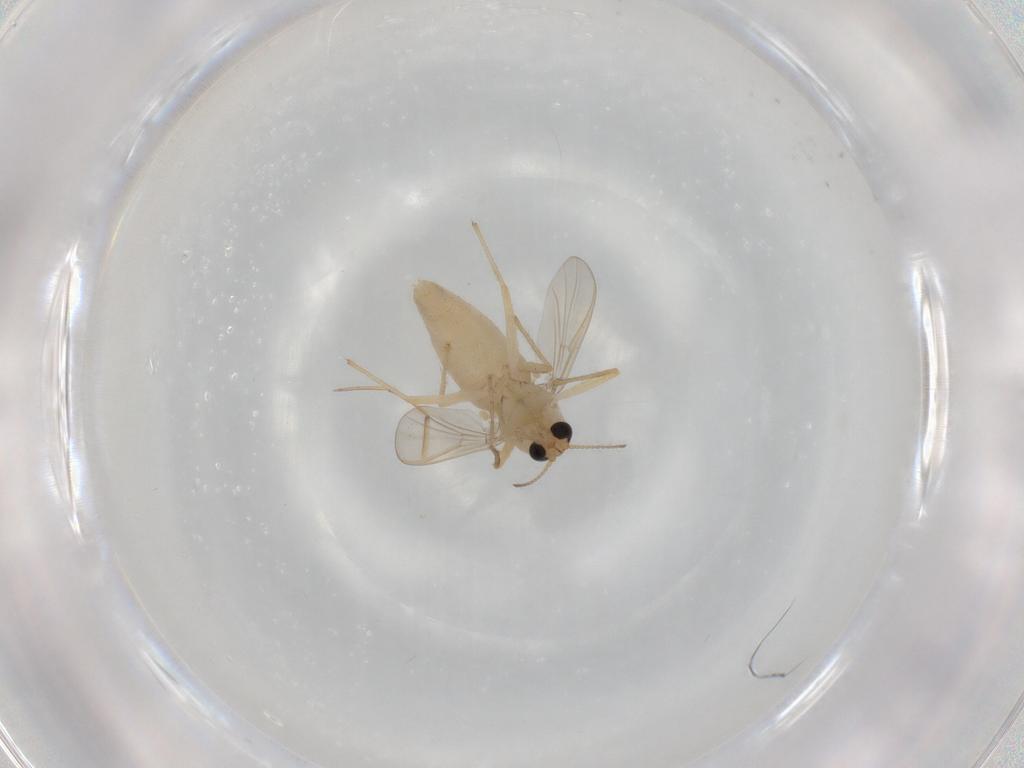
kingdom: Animalia
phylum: Arthropoda
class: Insecta
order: Diptera
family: Chironomidae
